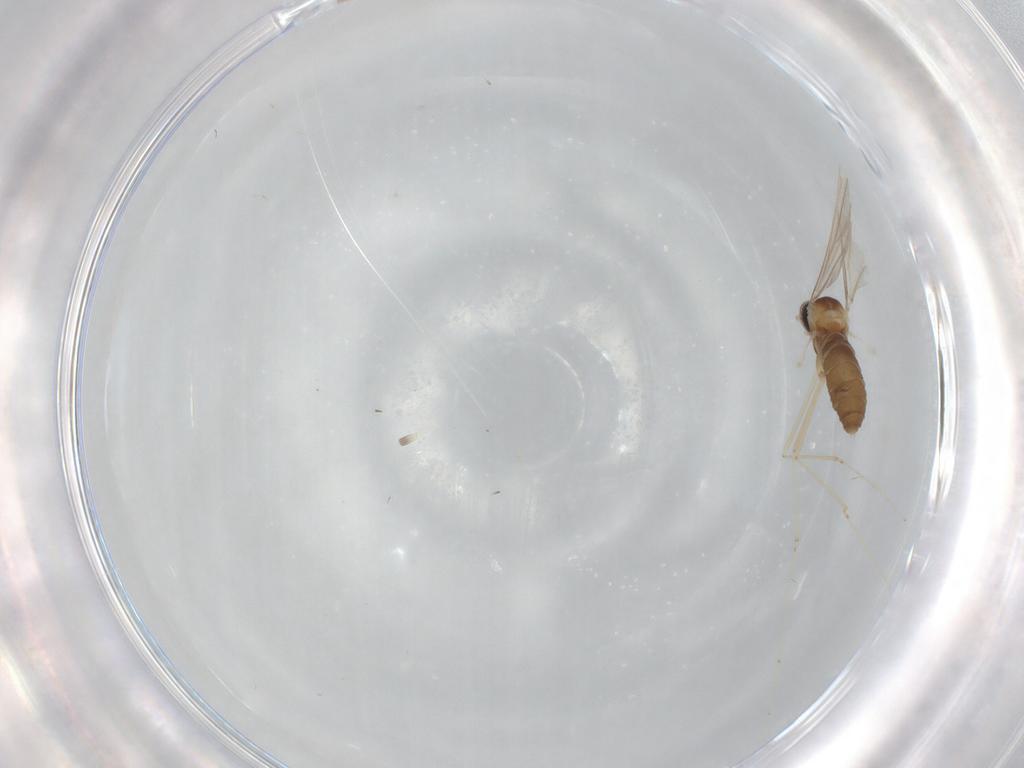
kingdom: Animalia
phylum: Arthropoda
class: Insecta
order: Diptera
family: Cecidomyiidae
